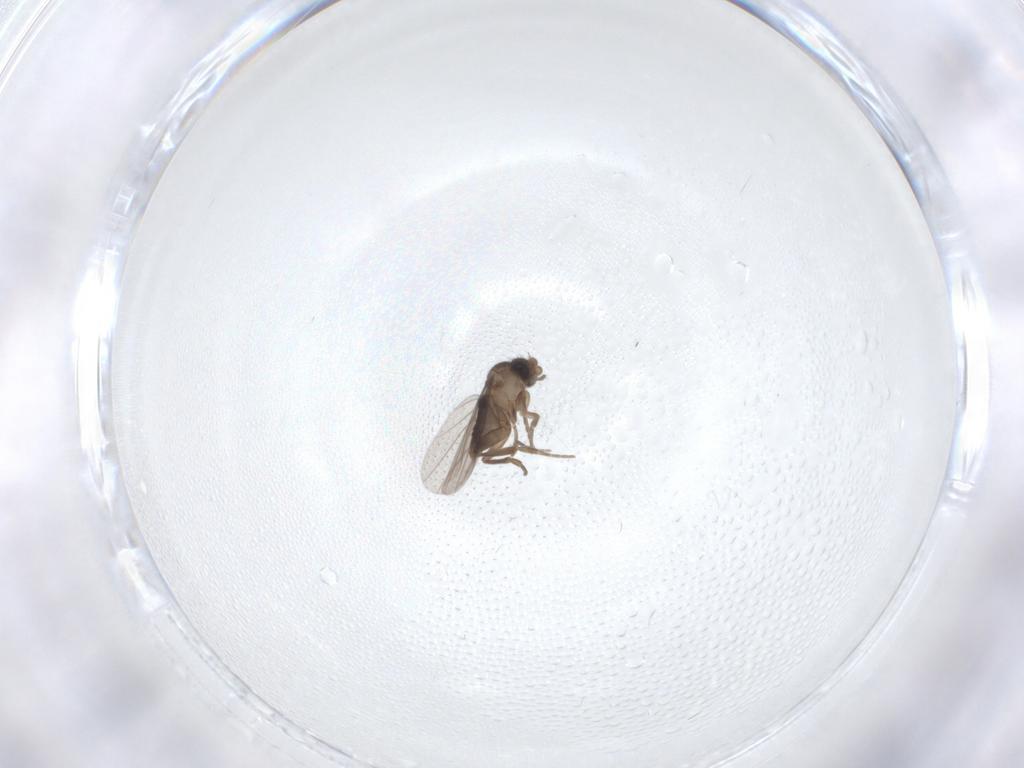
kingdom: Animalia
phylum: Arthropoda
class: Insecta
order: Diptera
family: Phoridae
